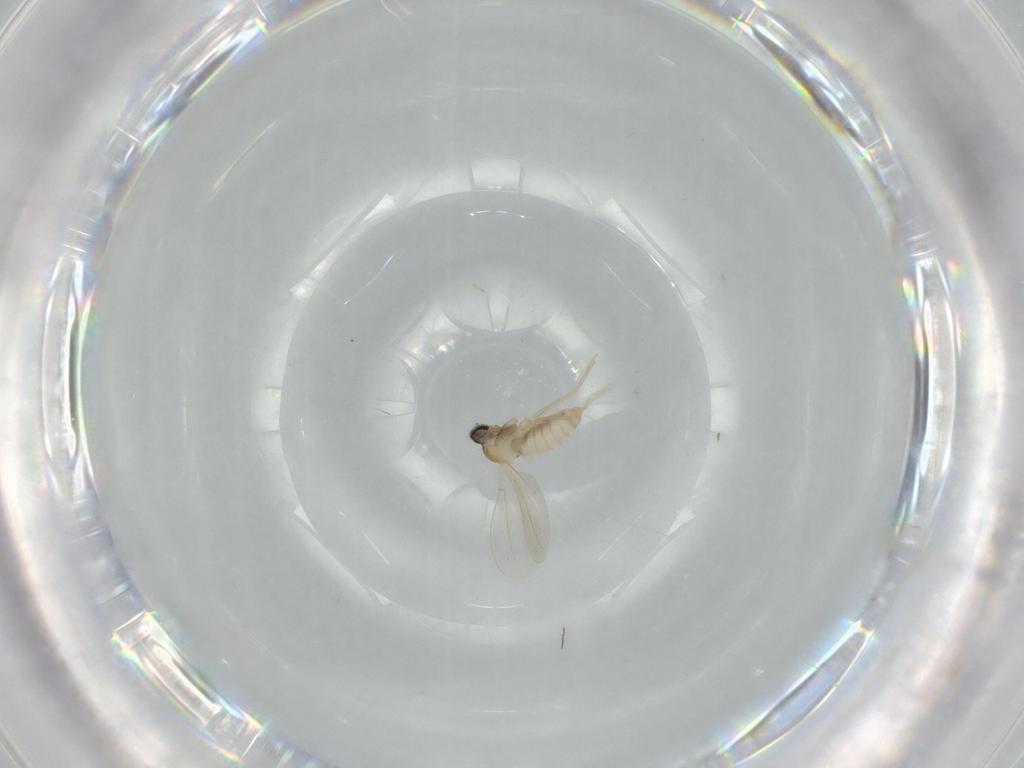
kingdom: Animalia
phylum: Arthropoda
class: Insecta
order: Diptera
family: Cecidomyiidae
